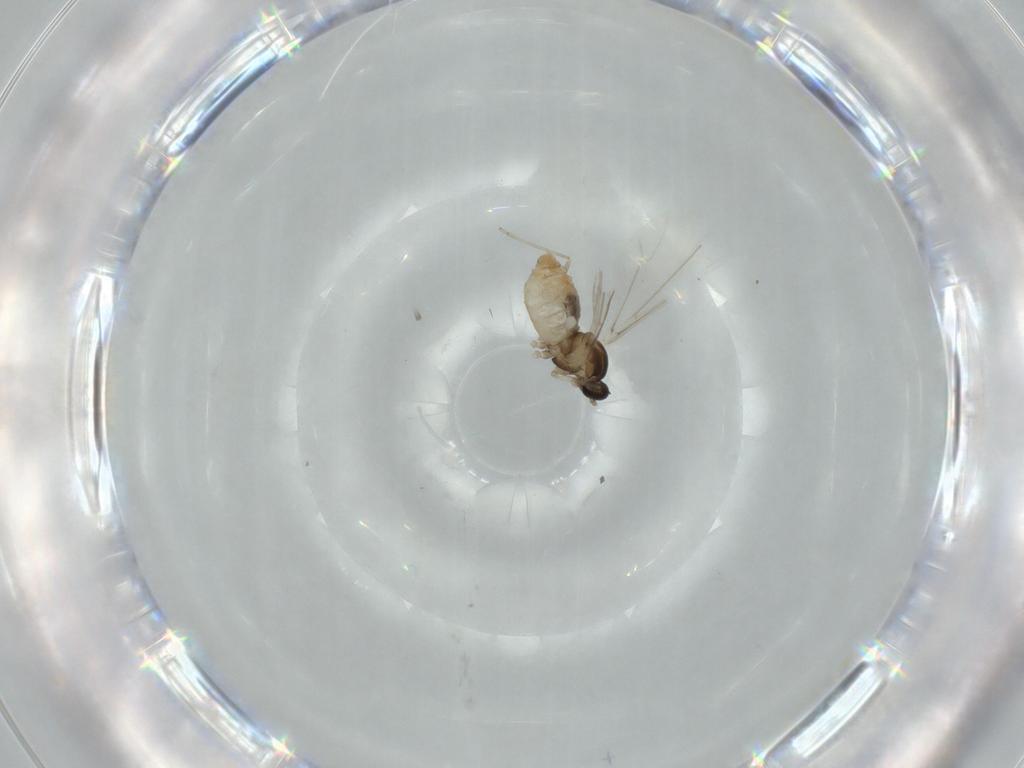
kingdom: Animalia
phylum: Arthropoda
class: Insecta
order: Diptera
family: Cecidomyiidae
